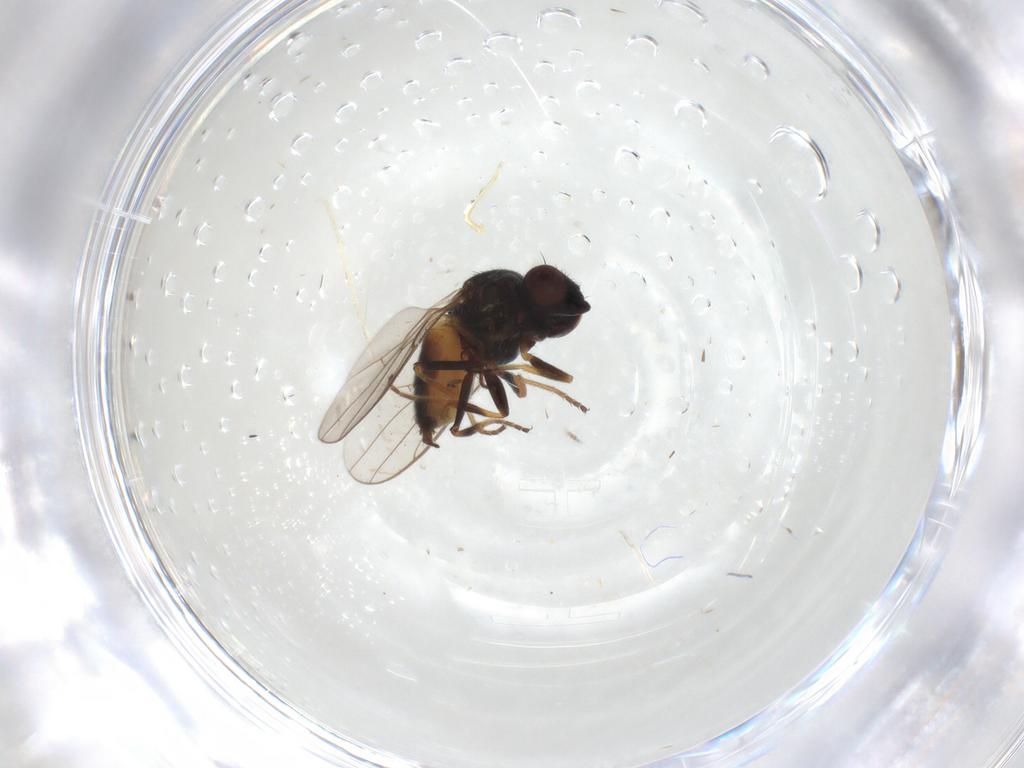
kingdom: Animalia
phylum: Arthropoda
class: Insecta
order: Diptera
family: Chloropidae
